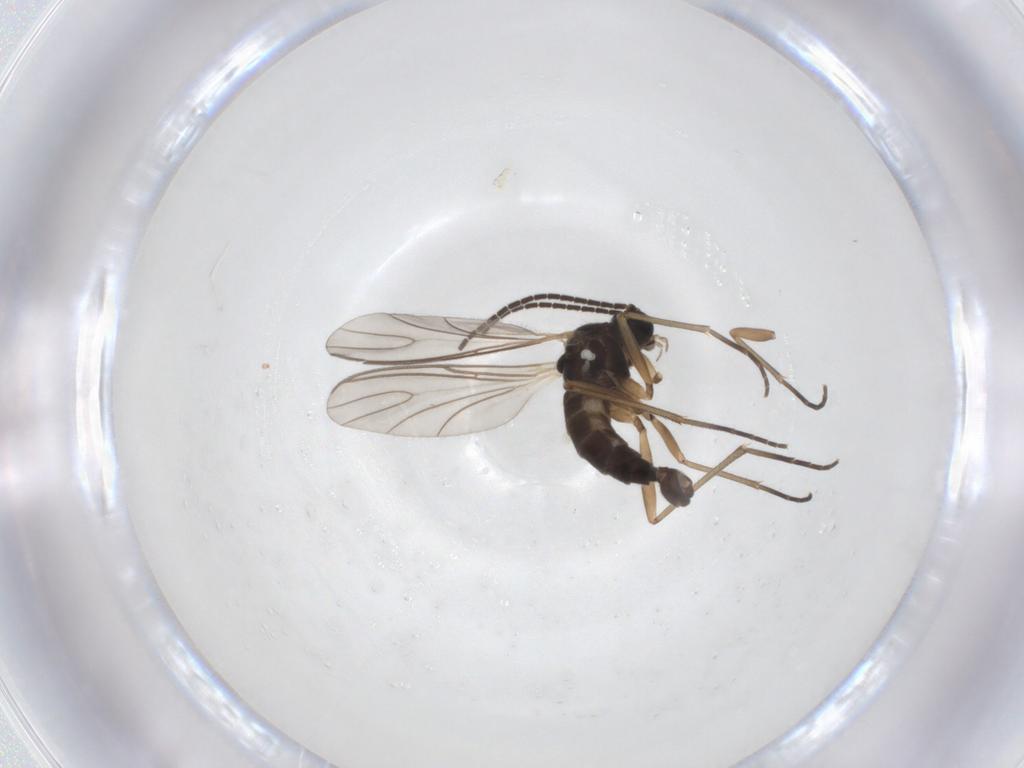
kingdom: Animalia
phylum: Arthropoda
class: Insecta
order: Diptera
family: Sciaridae
